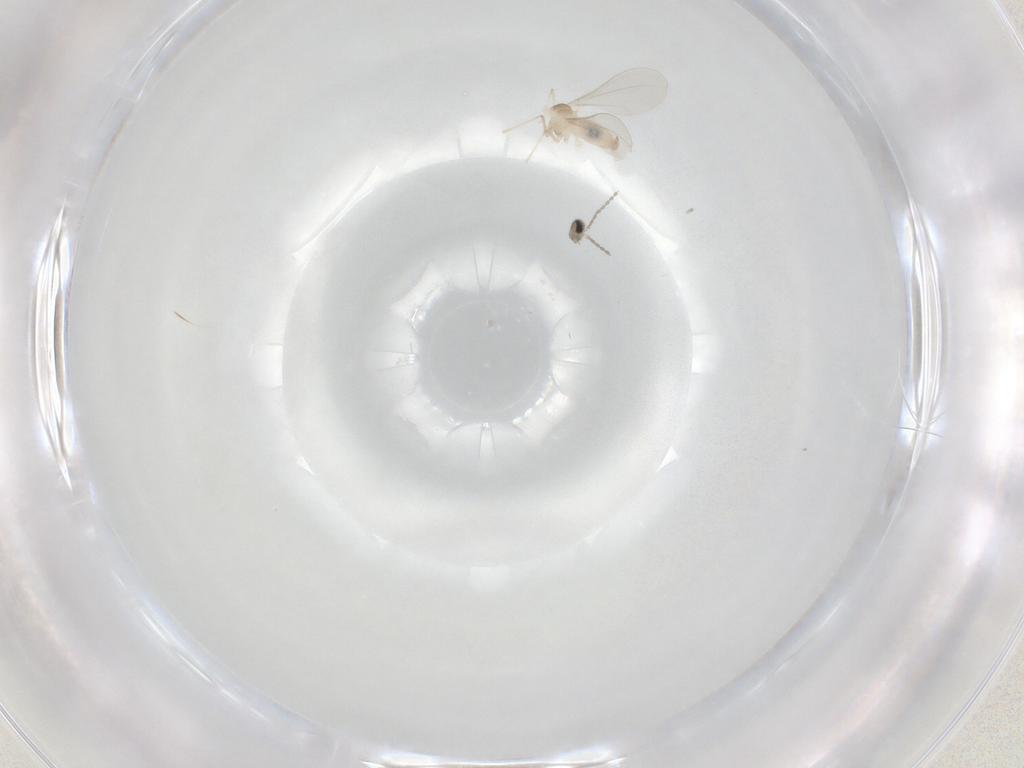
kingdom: Animalia
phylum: Arthropoda
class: Insecta
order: Diptera
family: Cecidomyiidae
